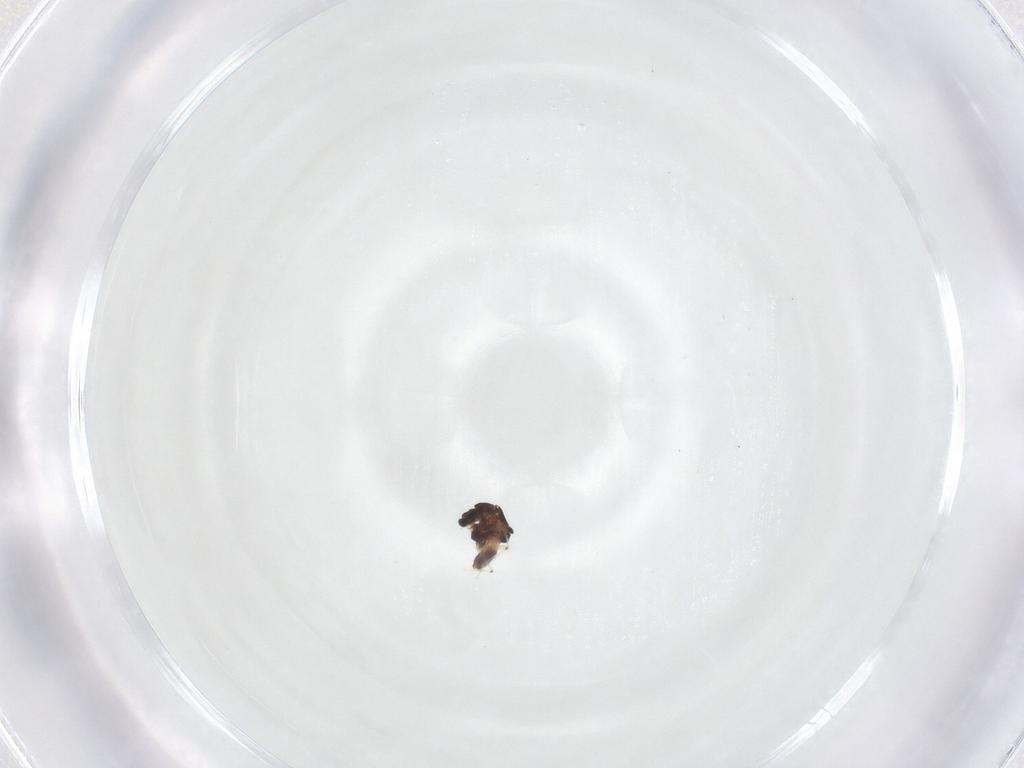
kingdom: Animalia
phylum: Arthropoda
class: Insecta
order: Diptera
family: Chironomidae
